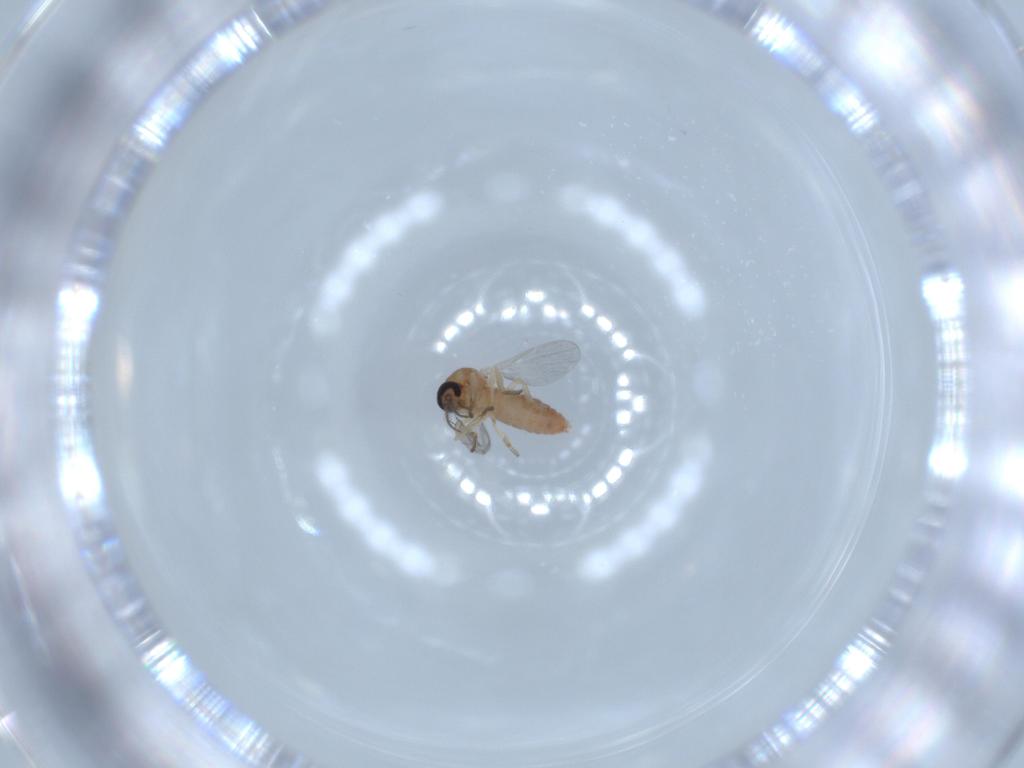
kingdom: Animalia
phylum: Arthropoda
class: Insecta
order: Diptera
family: Ceratopogonidae
